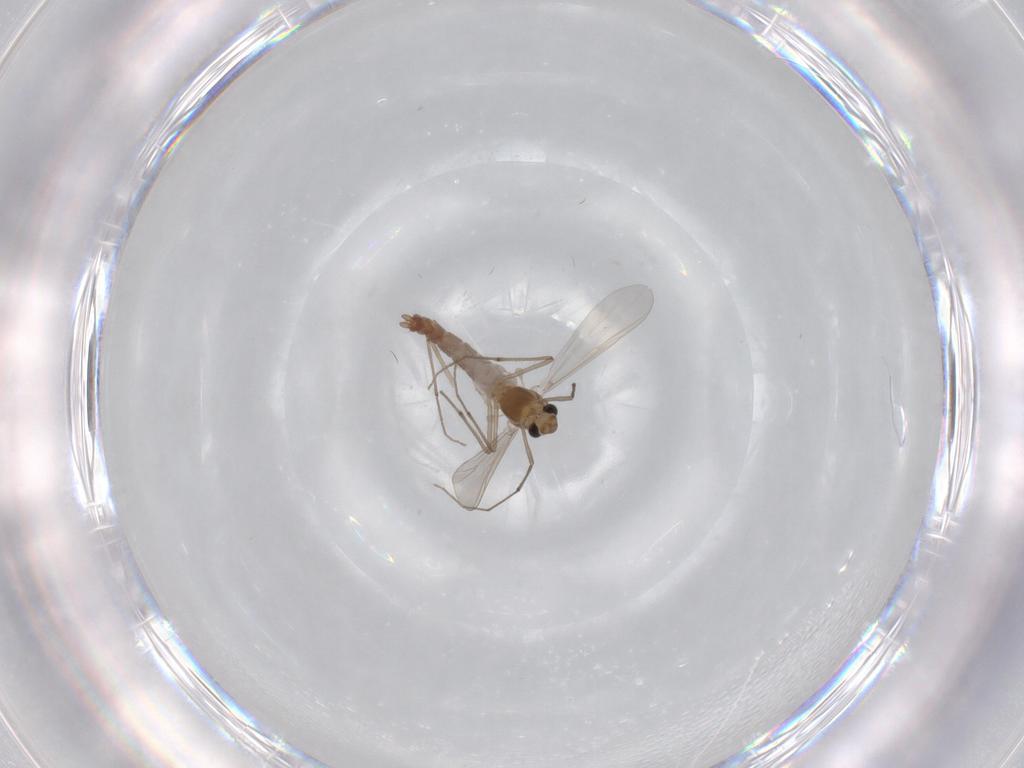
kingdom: Animalia
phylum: Arthropoda
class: Insecta
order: Diptera
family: Chironomidae
